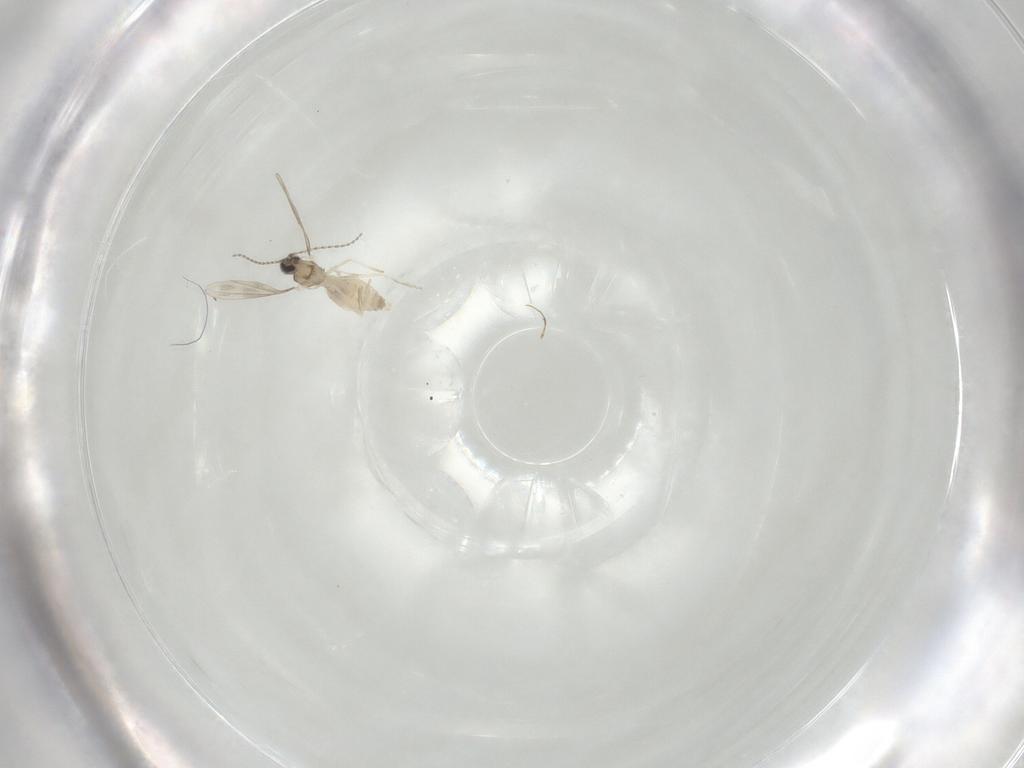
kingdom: Animalia
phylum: Arthropoda
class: Insecta
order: Diptera
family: Cecidomyiidae
